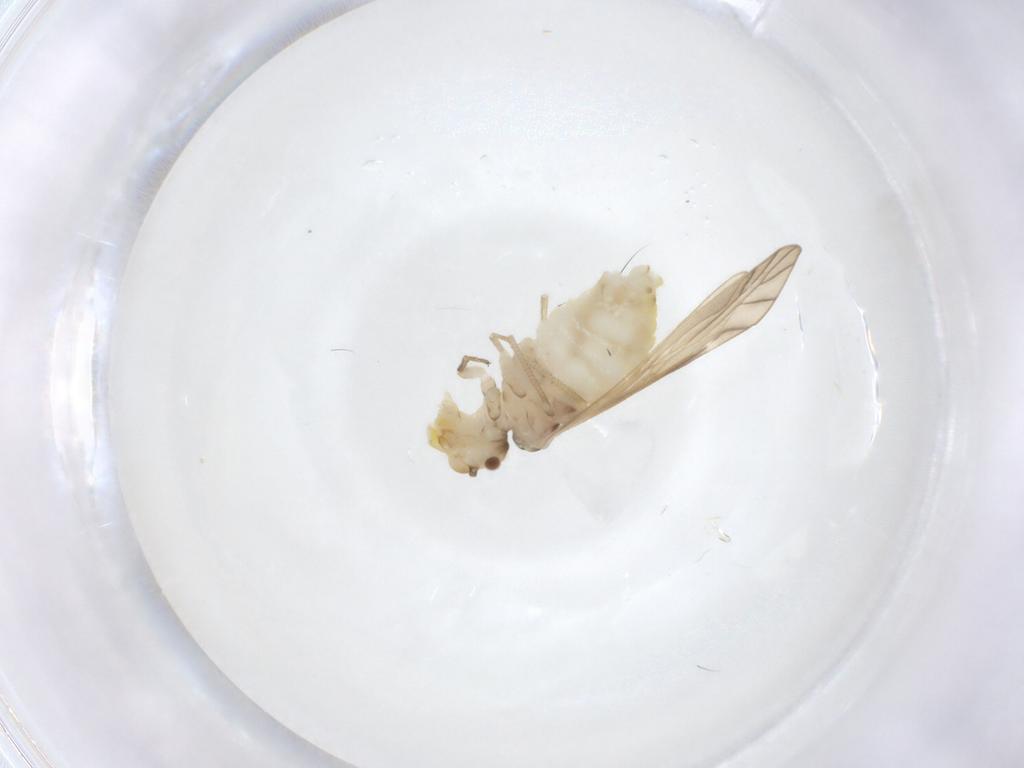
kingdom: Animalia
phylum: Arthropoda
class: Insecta
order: Psocodea
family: Caeciliusidae
